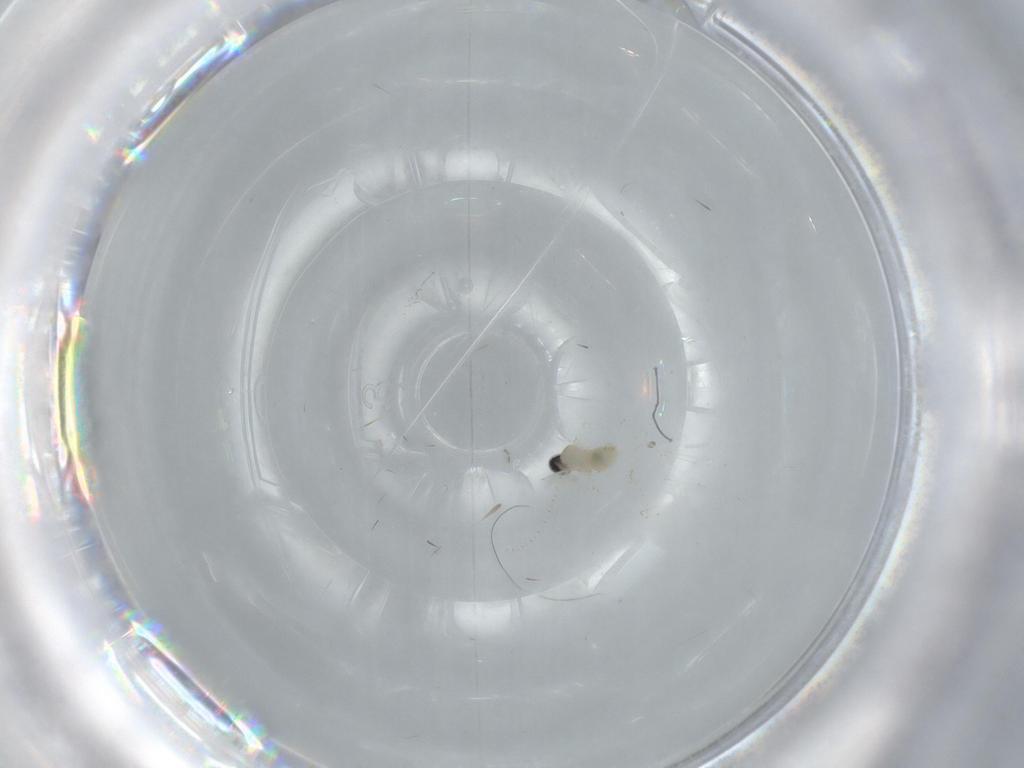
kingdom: Animalia
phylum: Arthropoda
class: Insecta
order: Diptera
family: Cecidomyiidae
